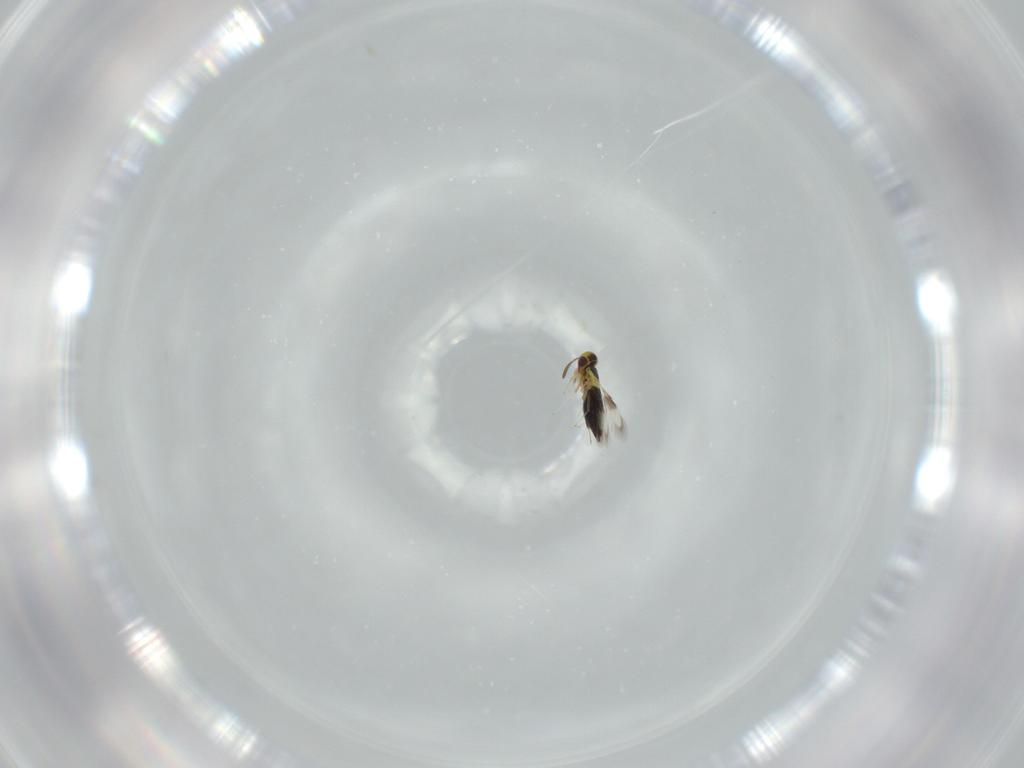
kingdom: Animalia
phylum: Arthropoda
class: Insecta
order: Hymenoptera
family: Signiphoridae
